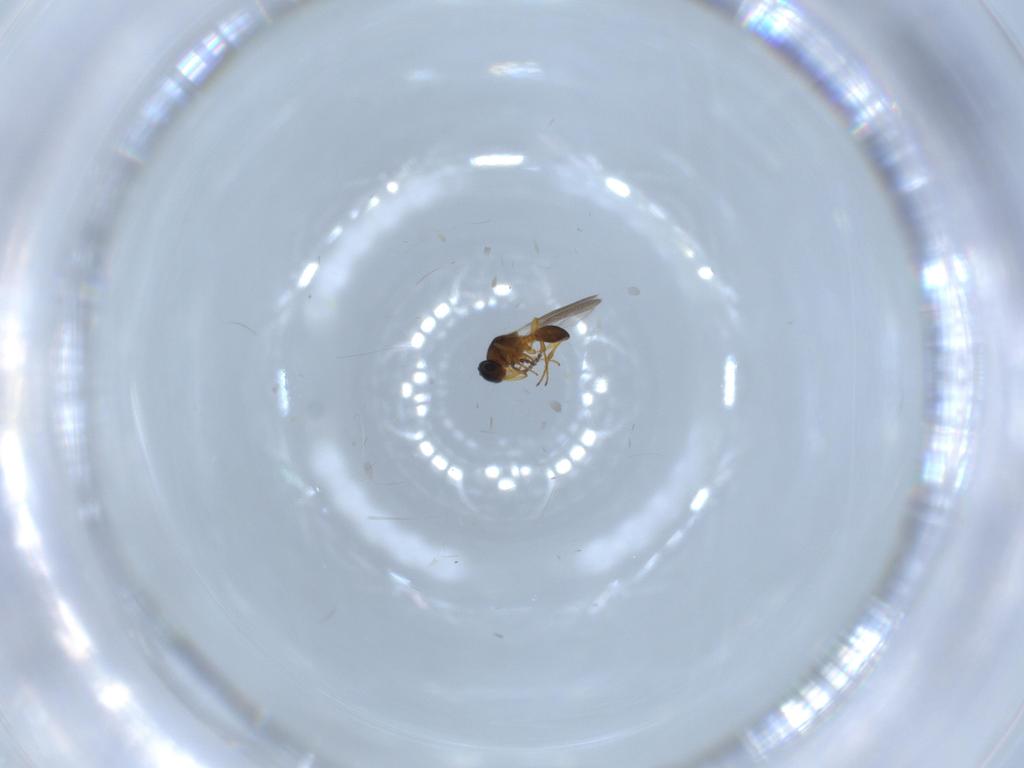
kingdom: Animalia
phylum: Arthropoda
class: Insecta
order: Hymenoptera
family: Platygastridae
